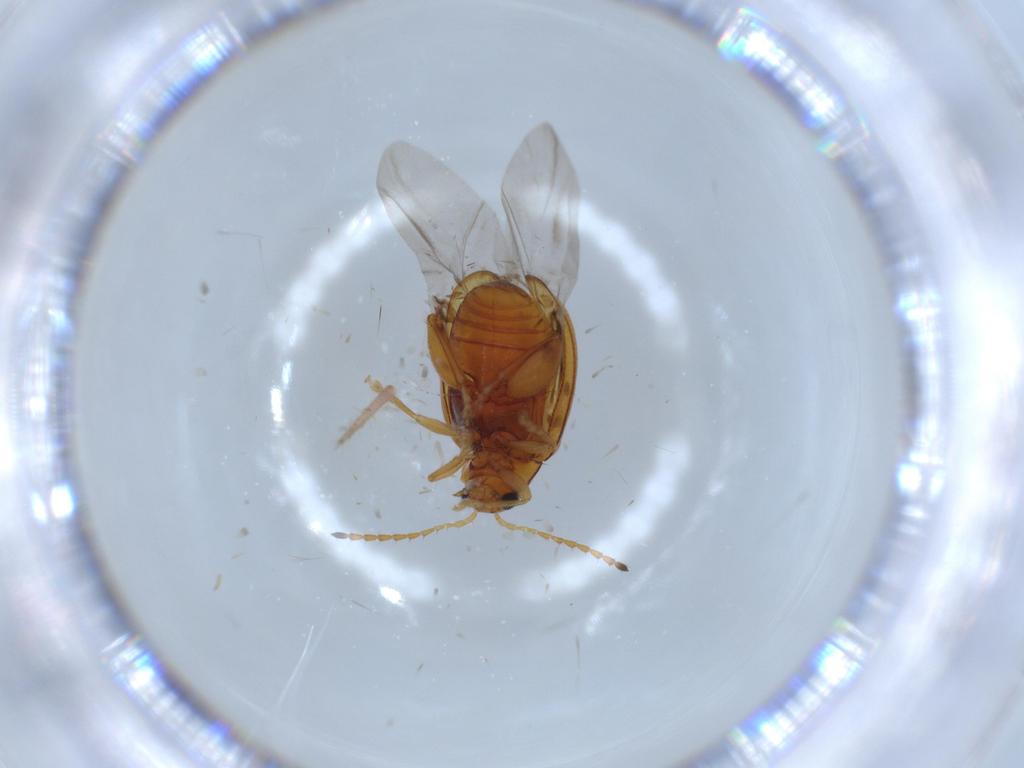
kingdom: Animalia
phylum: Arthropoda
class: Insecta
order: Coleoptera
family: Chrysomelidae
